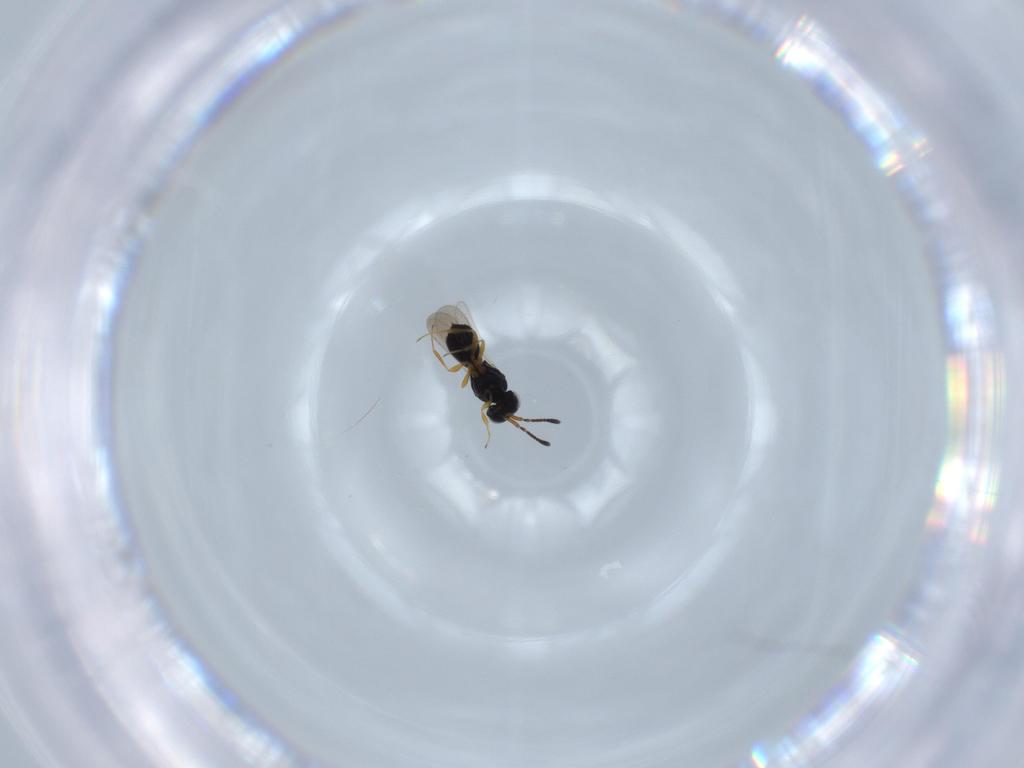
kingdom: Animalia
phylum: Arthropoda
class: Insecta
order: Hymenoptera
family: Scelionidae
